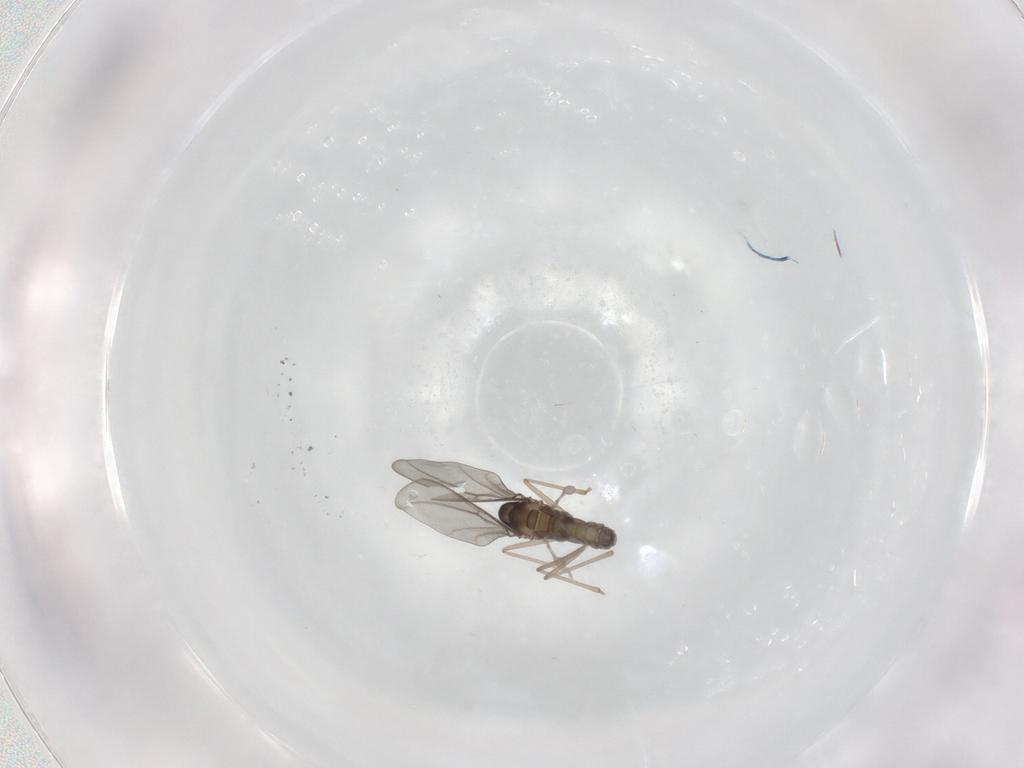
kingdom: Animalia
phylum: Arthropoda
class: Insecta
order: Diptera
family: Cecidomyiidae
